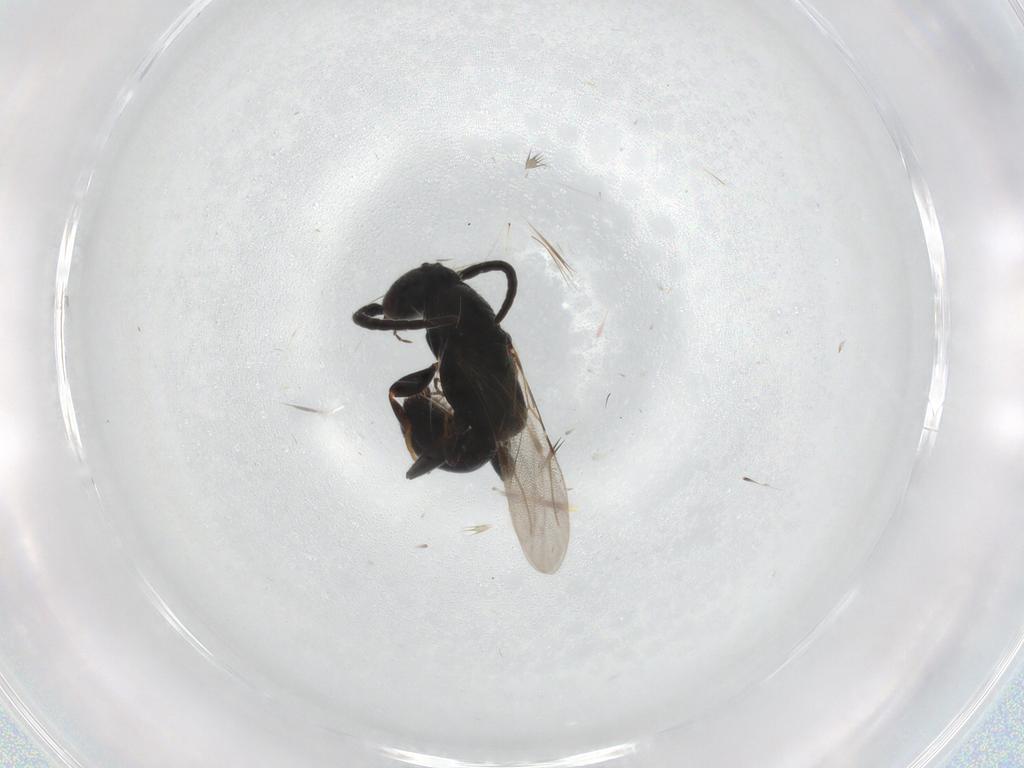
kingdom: Animalia
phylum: Arthropoda
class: Insecta
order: Hymenoptera
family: Bethylidae
